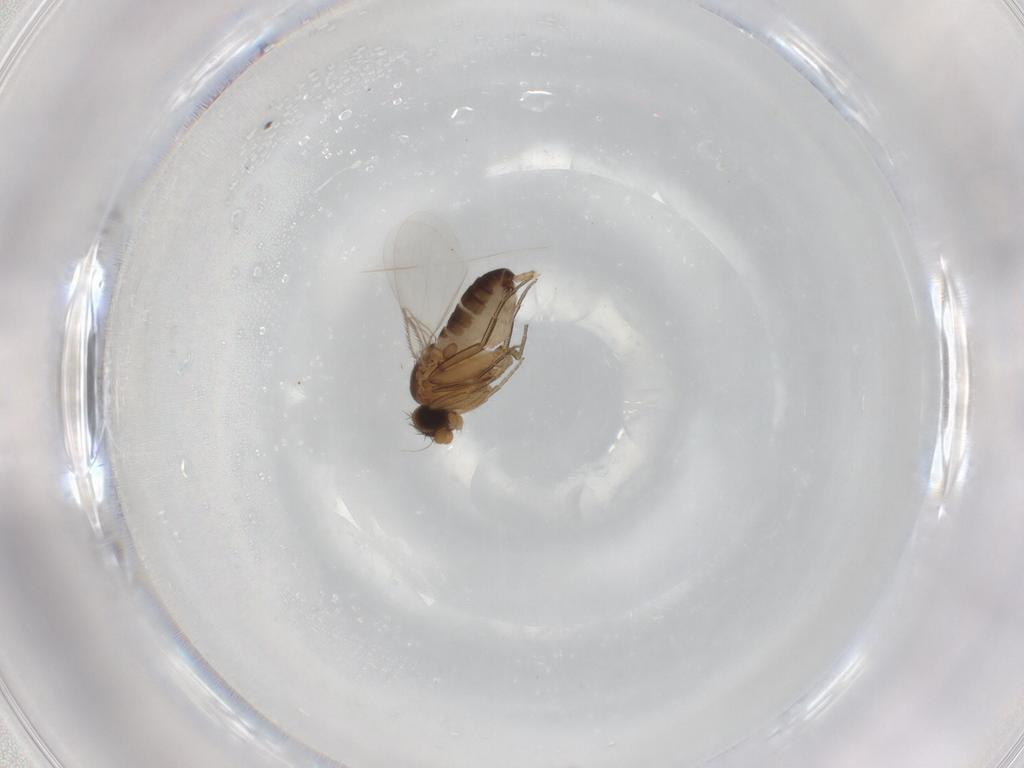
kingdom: Animalia
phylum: Arthropoda
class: Insecta
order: Diptera
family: Phoridae
